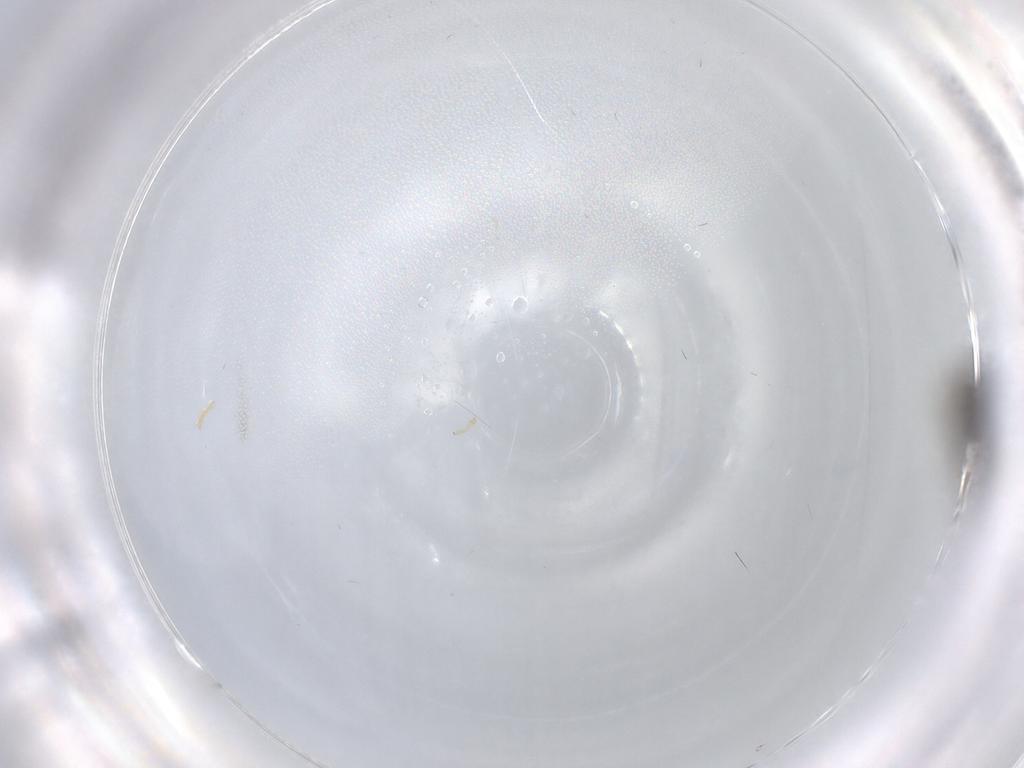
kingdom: Animalia
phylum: Arthropoda
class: Insecta
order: Diptera
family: Phoridae
